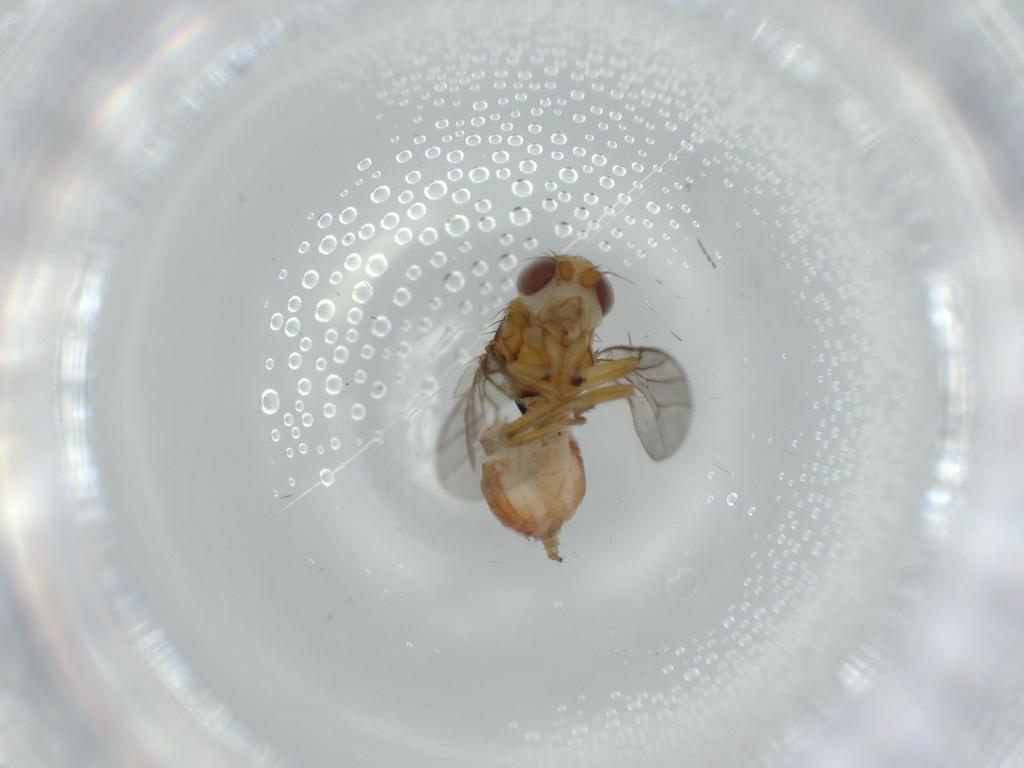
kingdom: Animalia
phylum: Arthropoda
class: Insecta
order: Diptera
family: Chloropidae
